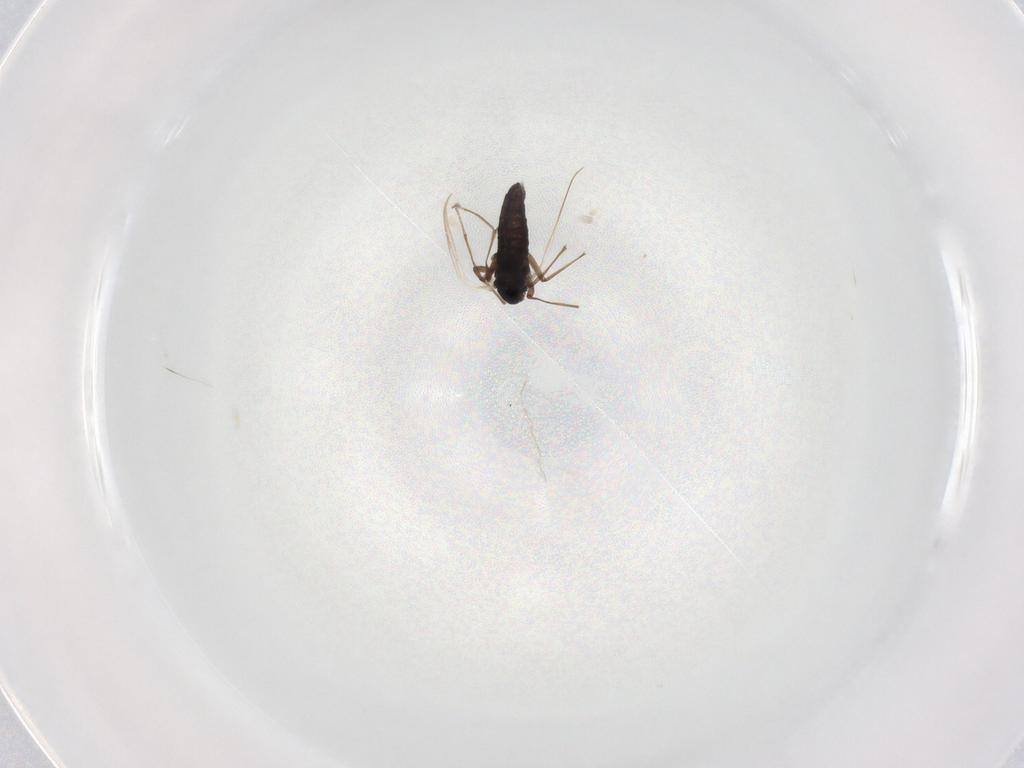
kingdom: Animalia
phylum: Arthropoda
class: Insecta
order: Diptera
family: Chironomidae
